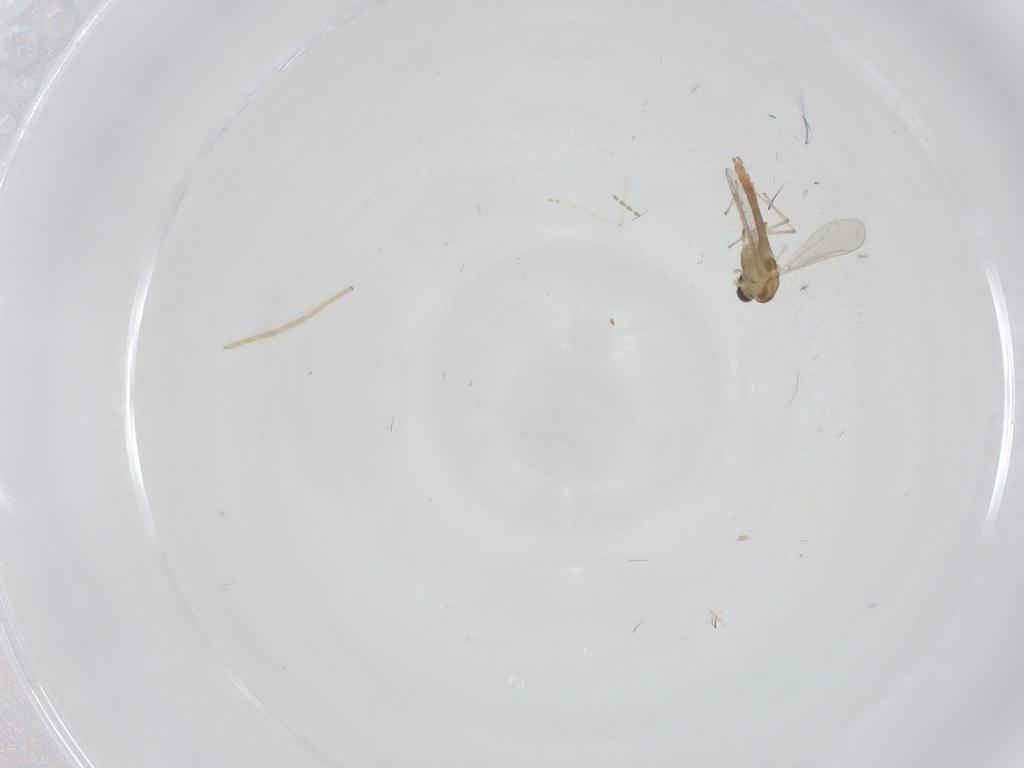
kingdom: Animalia
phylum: Arthropoda
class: Insecta
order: Diptera
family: Chironomidae
